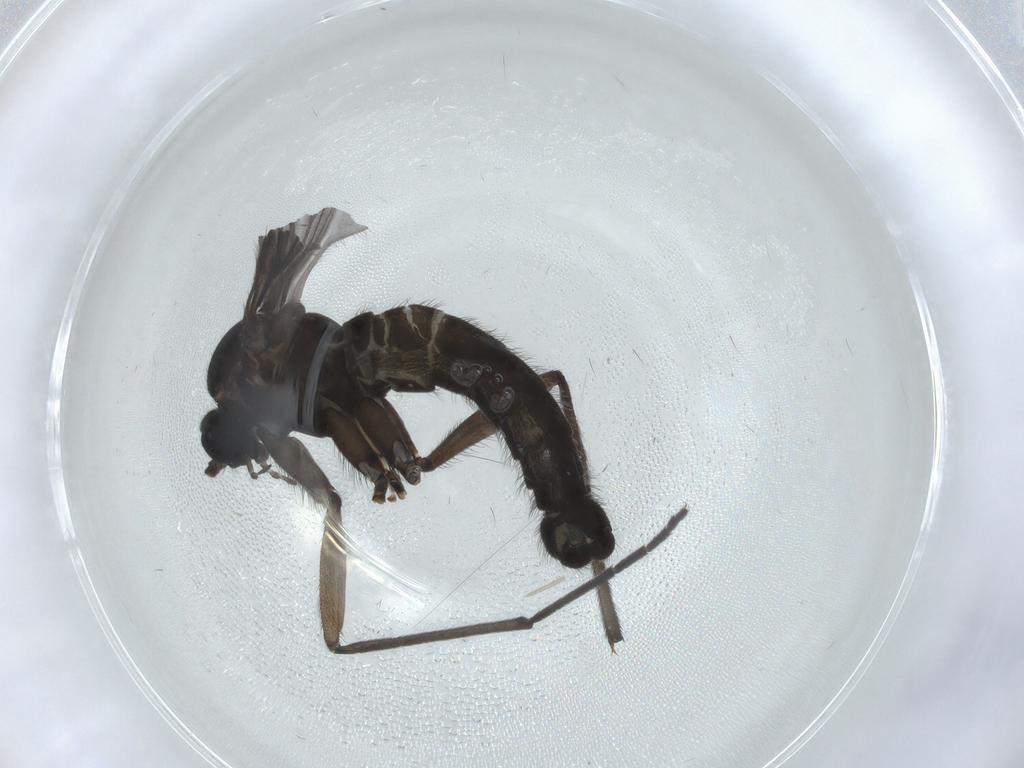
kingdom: Animalia
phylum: Arthropoda
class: Insecta
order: Diptera
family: Sciaridae
